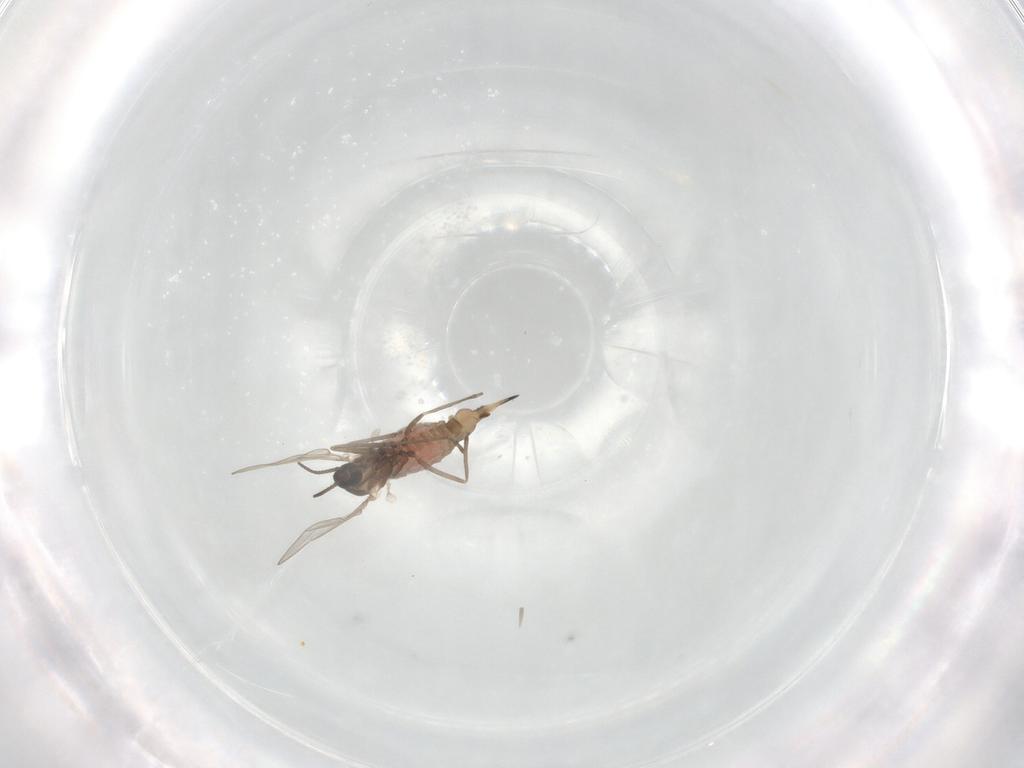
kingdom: Animalia
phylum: Arthropoda
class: Insecta
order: Diptera
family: Cecidomyiidae
